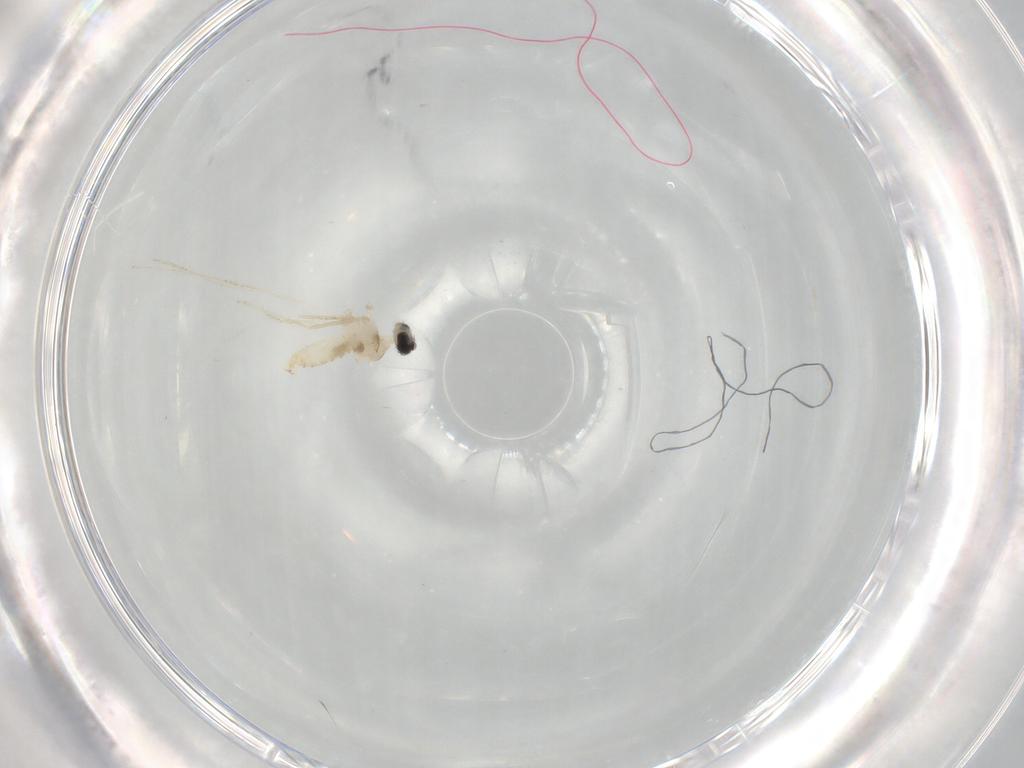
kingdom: Animalia
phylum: Arthropoda
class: Insecta
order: Diptera
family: Cecidomyiidae
